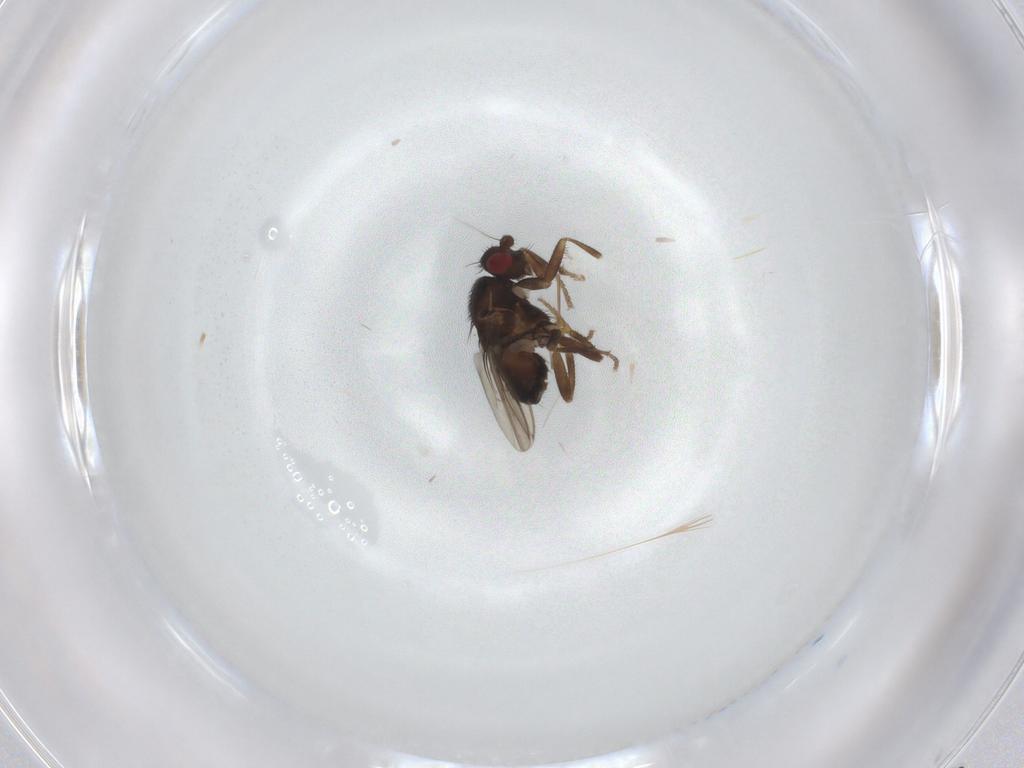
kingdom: Animalia
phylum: Arthropoda
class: Insecta
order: Diptera
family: Sphaeroceridae
